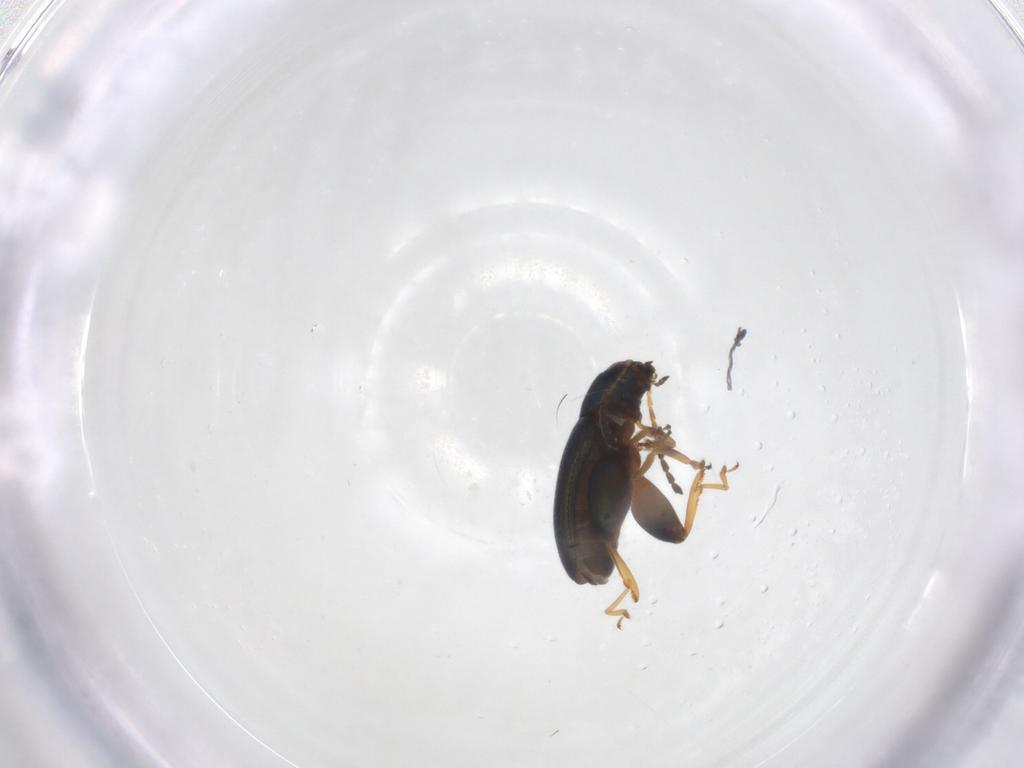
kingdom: Animalia
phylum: Arthropoda
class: Insecta
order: Coleoptera
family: Chrysomelidae
